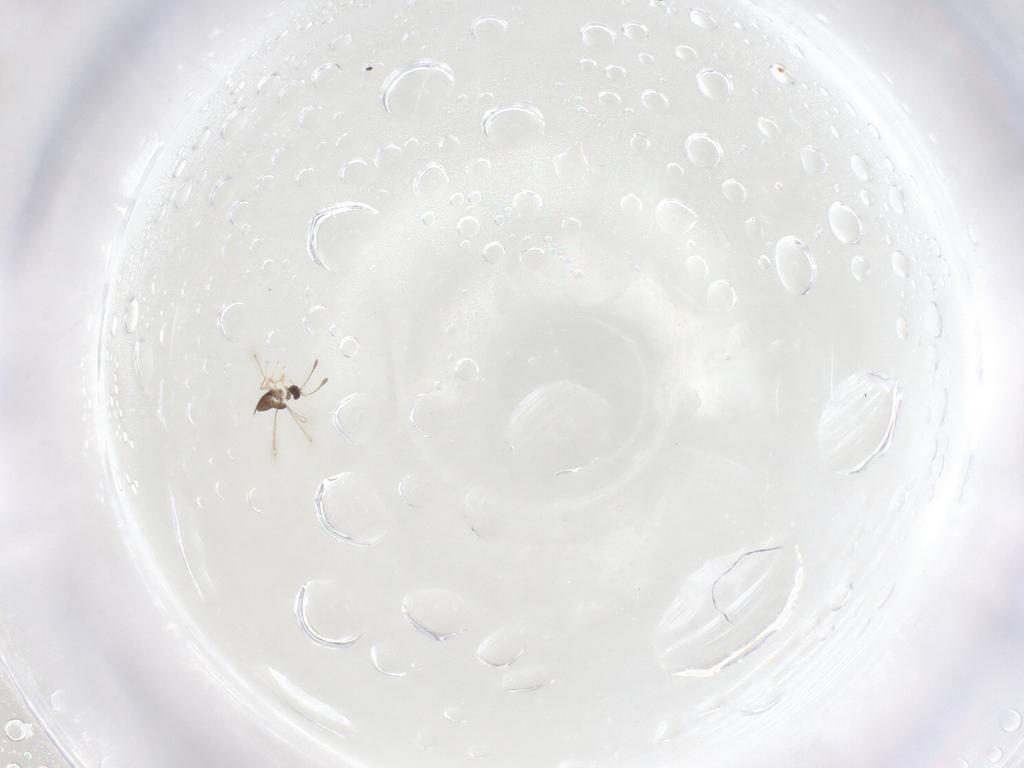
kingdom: Animalia
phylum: Arthropoda
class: Insecta
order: Hymenoptera
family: Mymaridae
